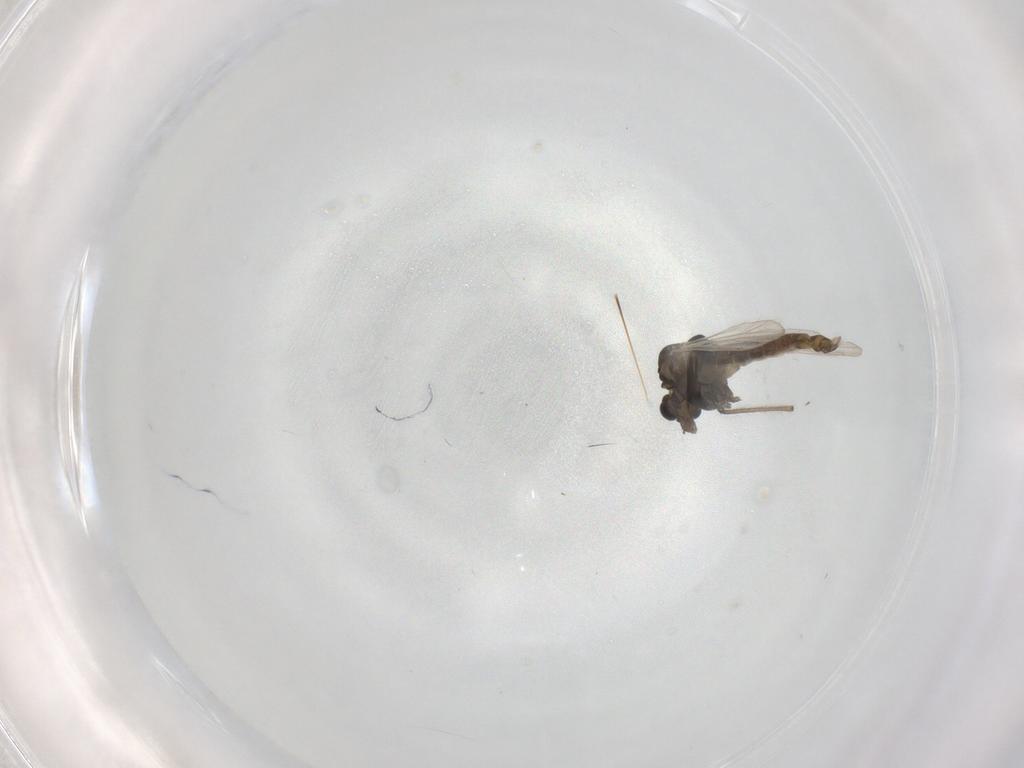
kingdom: Animalia
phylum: Arthropoda
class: Insecta
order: Diptera
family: Chironomidae
